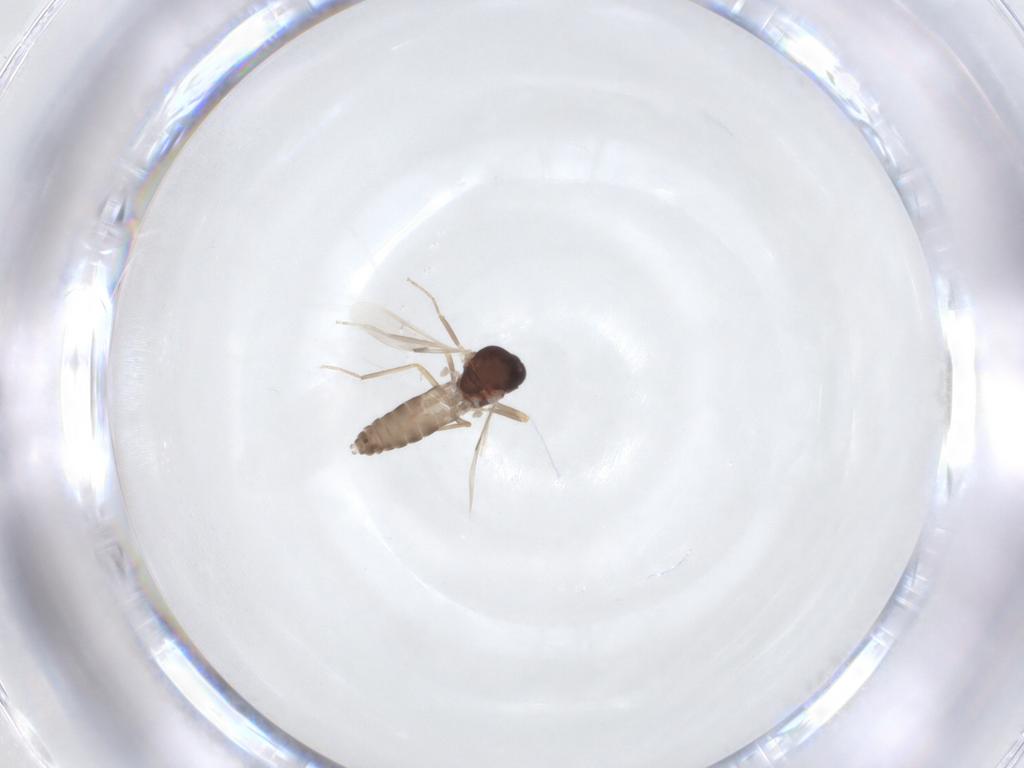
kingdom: Animalia
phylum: Arthropoda
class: Insecta
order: Diptera
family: Ceratopogonidae
